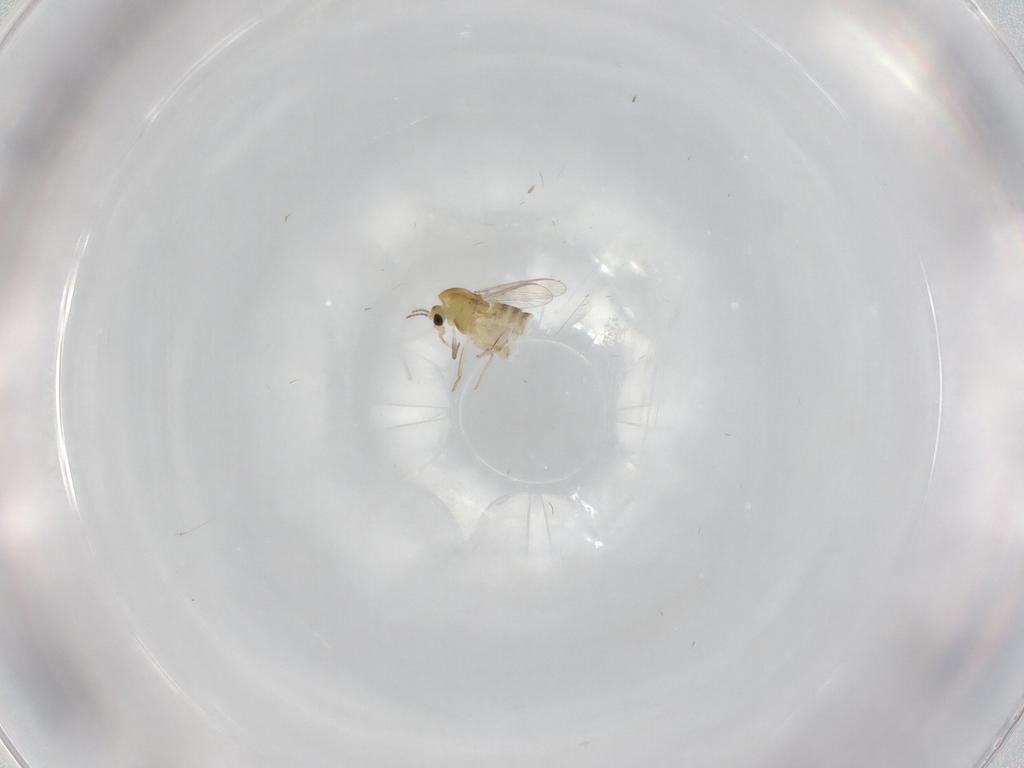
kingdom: Animalia
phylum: Arthropoda
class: Insecta
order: Diptera
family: Chironomidae
